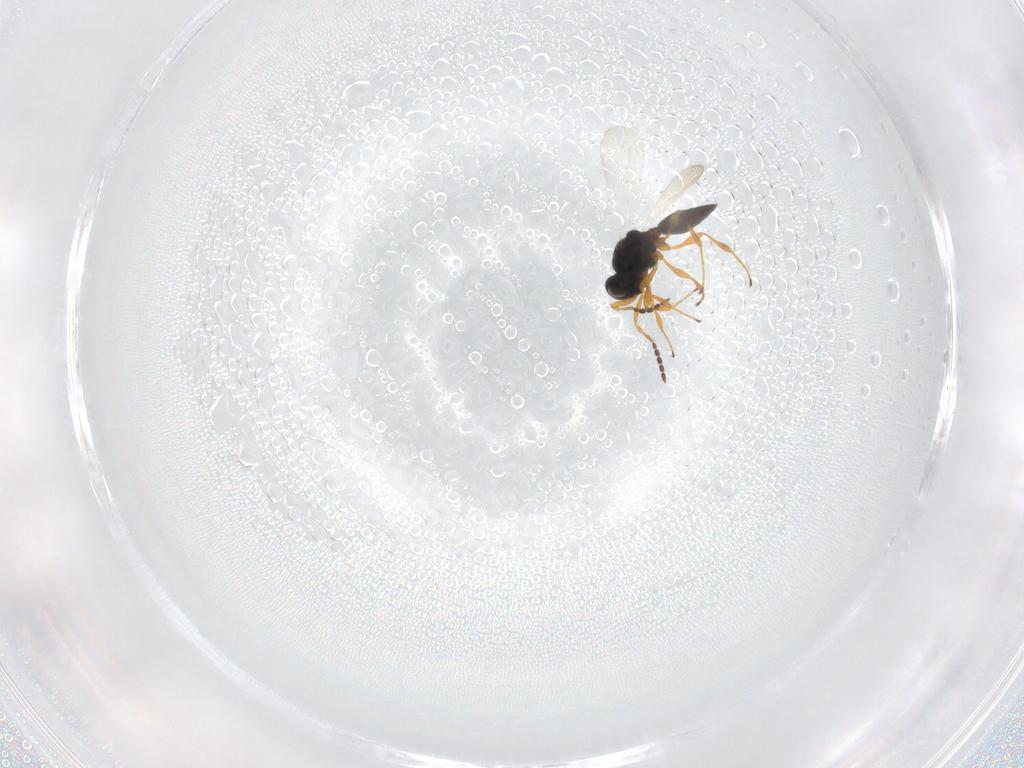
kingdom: Animalia
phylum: Arthropoda
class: Insecta
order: Hymenoptera
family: Platygastridae
